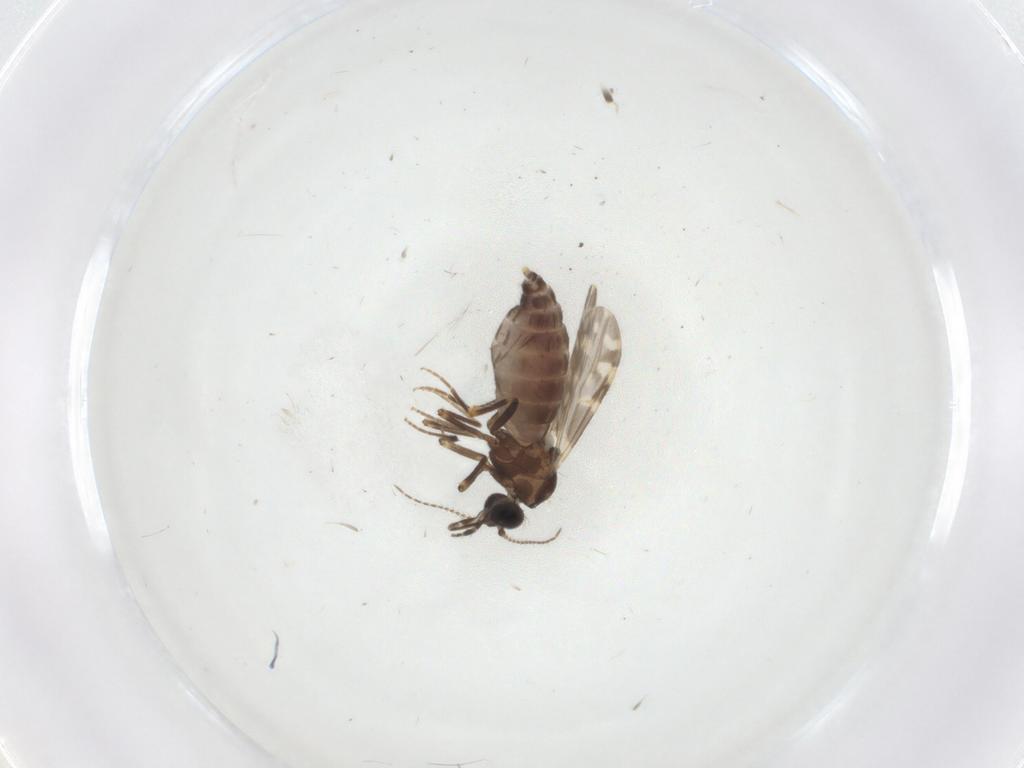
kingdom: Animalia
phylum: Arthropoda
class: Insecta
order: Diptera
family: Ceratopogonidae
